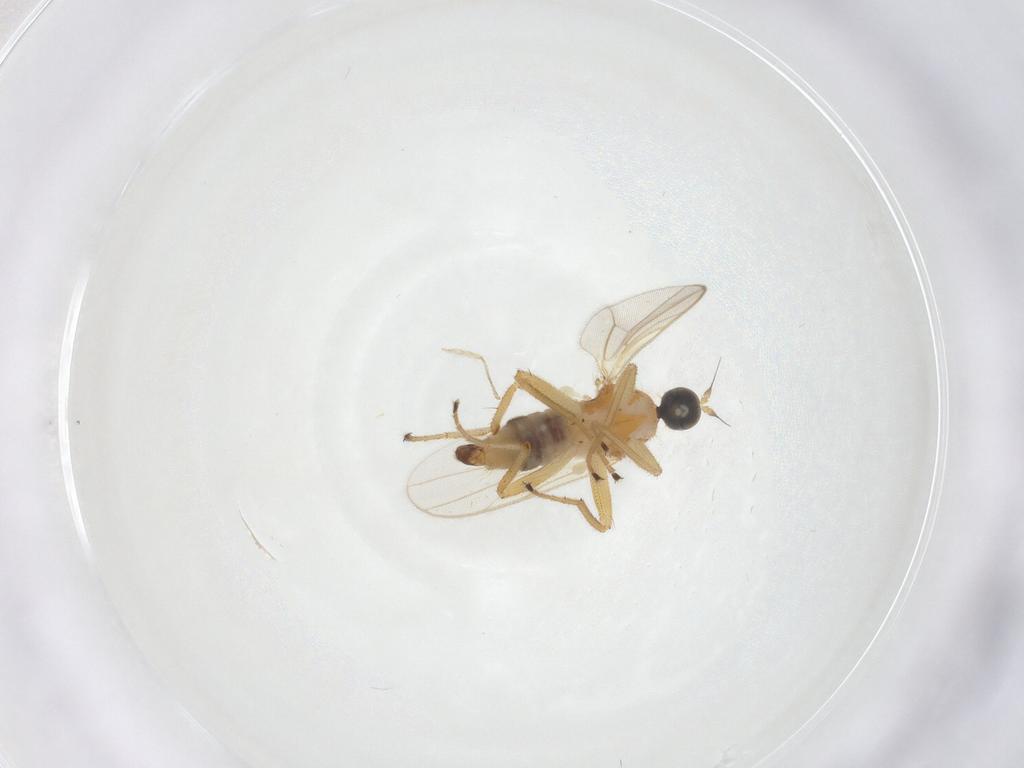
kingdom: Animalia
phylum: Arthropoda
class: Insecta
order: Diptera
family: Hybotidae
